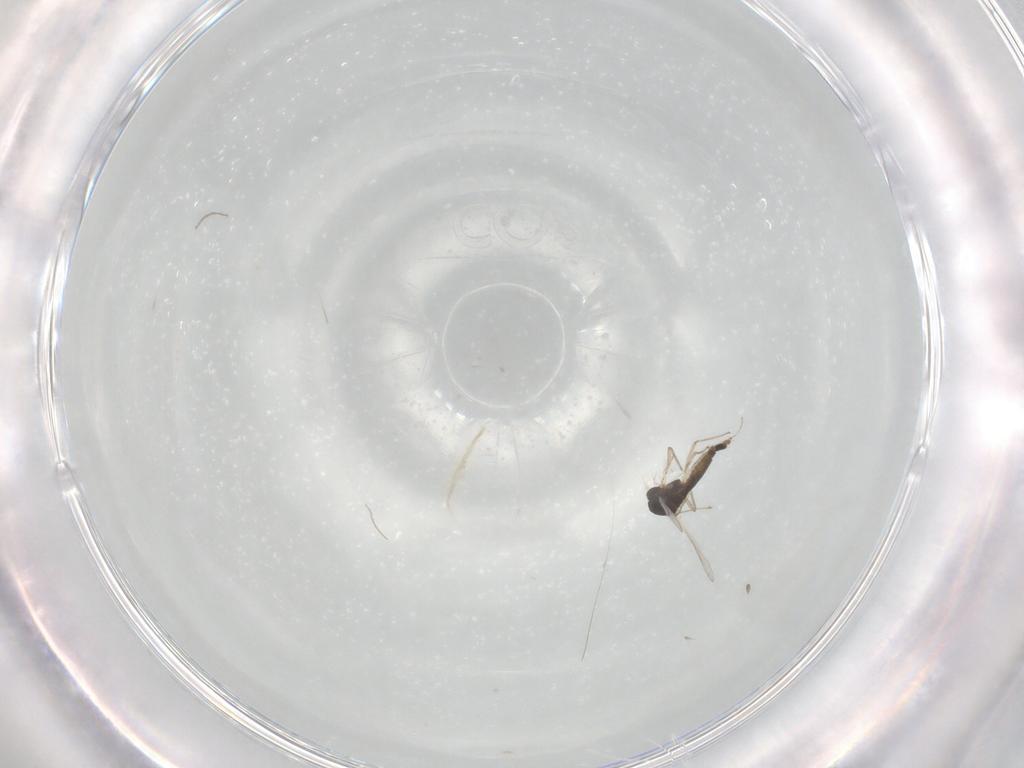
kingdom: Animalia
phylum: Arthropoda
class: Insecta
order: Diptera
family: Chironomidae
